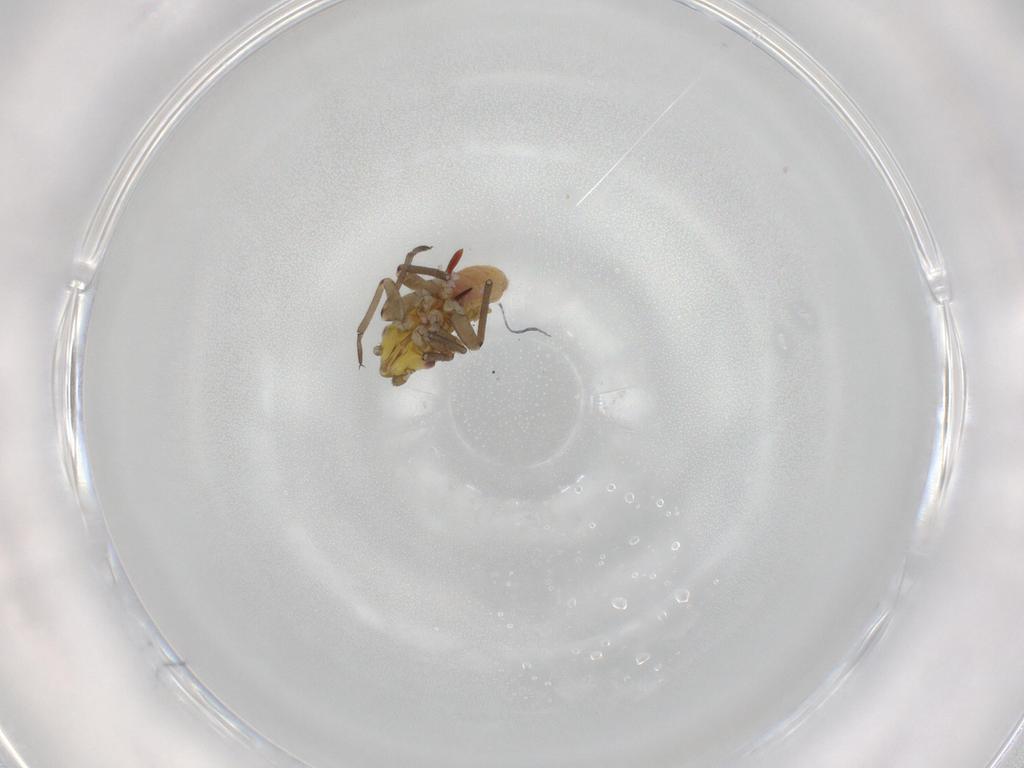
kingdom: Animalia
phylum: Arthropoda
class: Insecta
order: Hemiptera
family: Miridae
